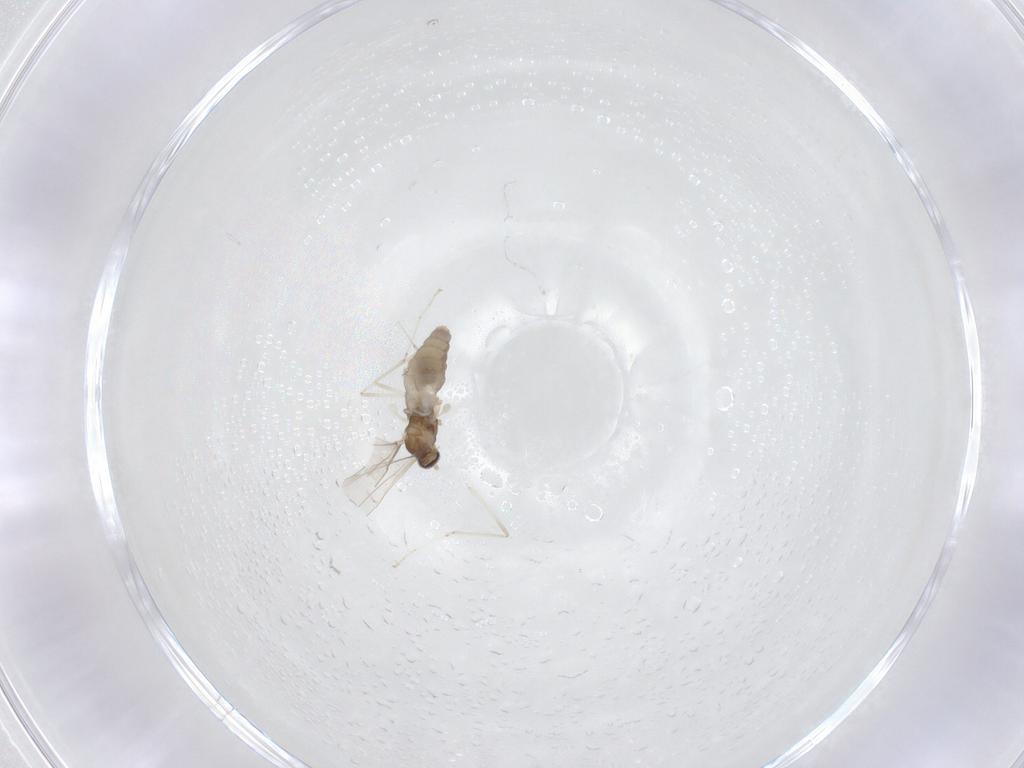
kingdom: Animalia
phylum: Arthropoda
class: Insecta
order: Diptera
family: Cecidomyiidae
